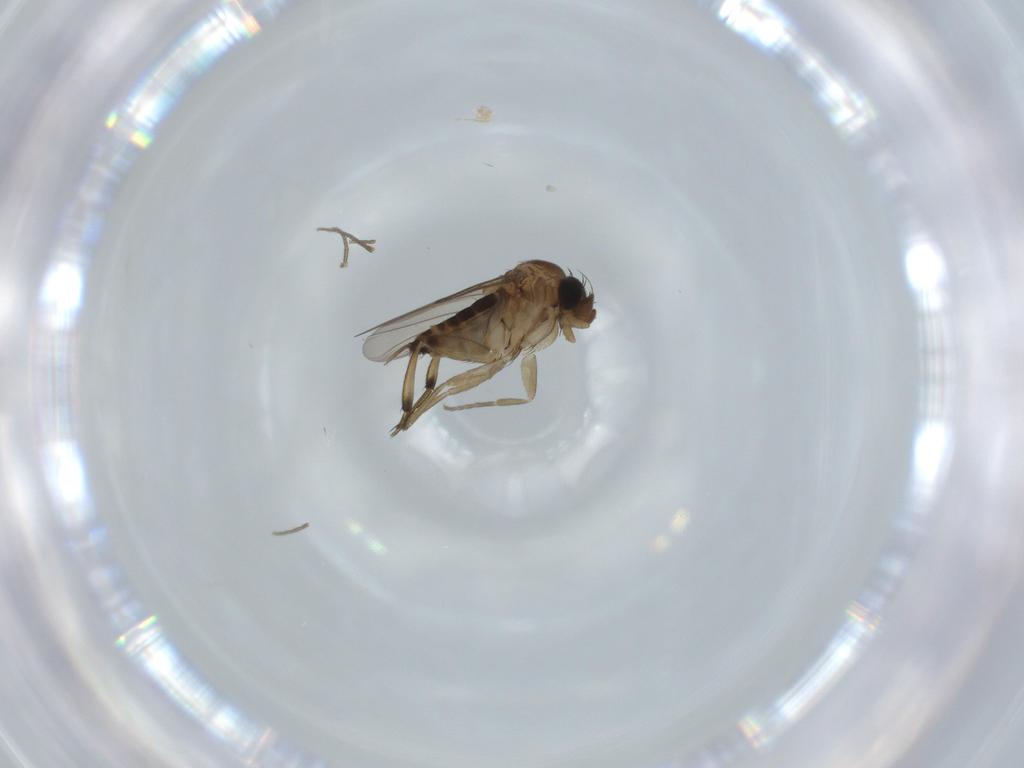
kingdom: Animalia
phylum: Arthropoda
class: Insecta
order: Diptera
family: Phoridae
